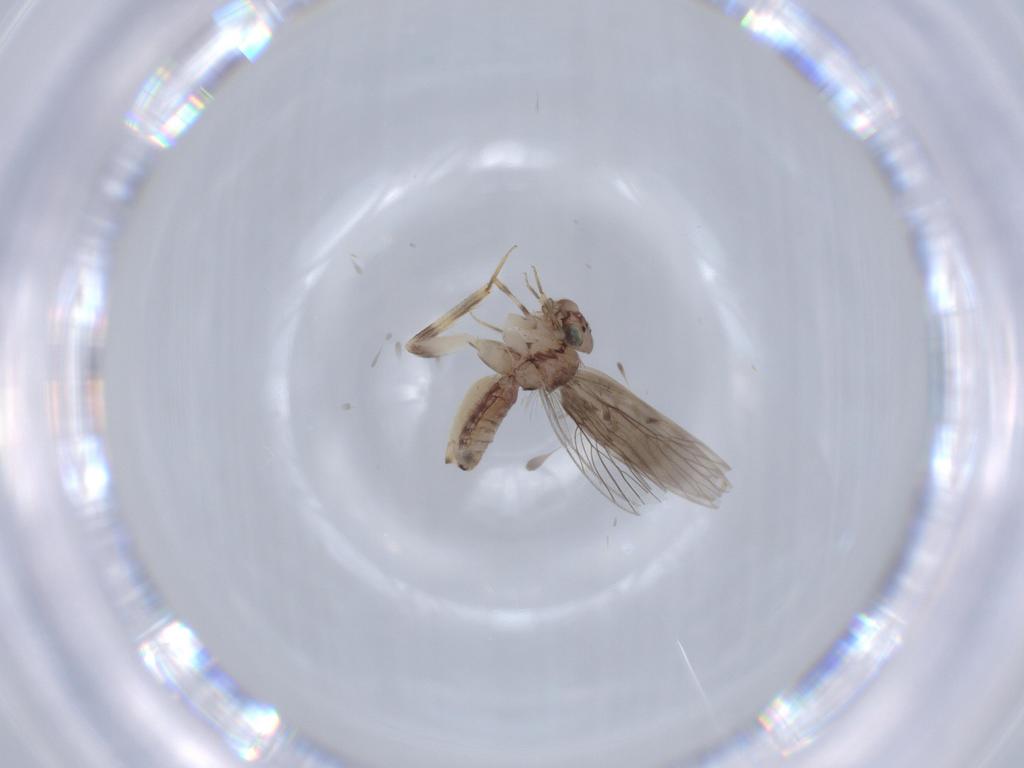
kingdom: Animalia
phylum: Arthropoda
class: Insecta
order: Psocodea
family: Lepidopsocidae
